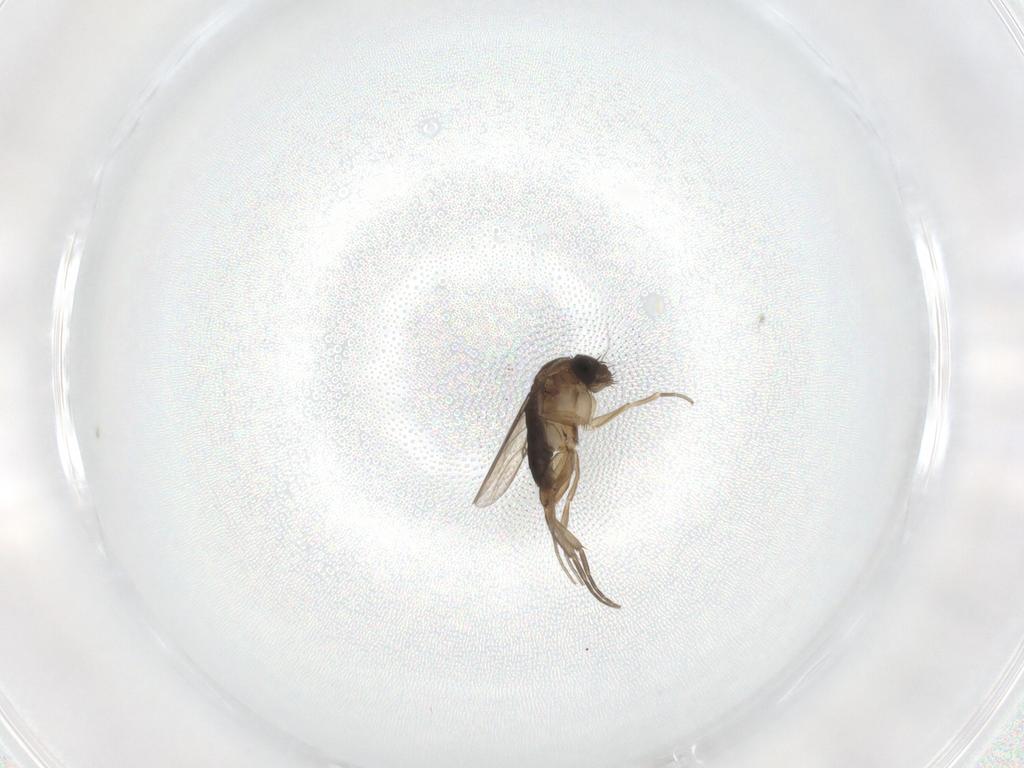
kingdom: Animalia
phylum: Arthropoda
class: Insecta
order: Diptera
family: Phoridae
